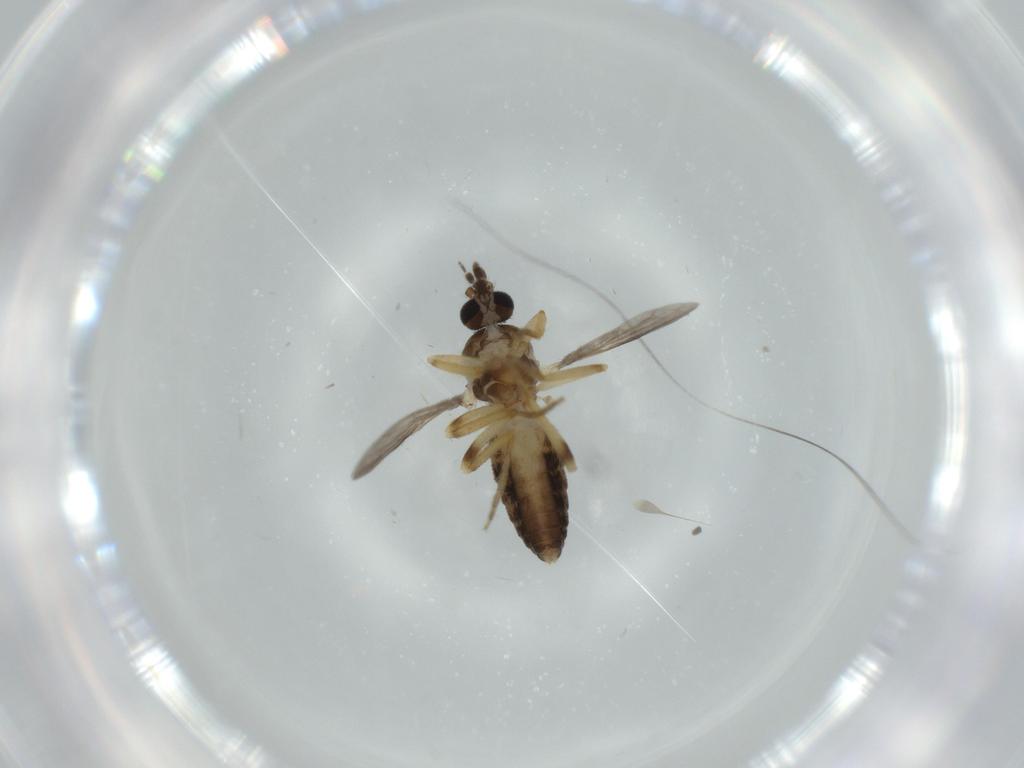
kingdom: Animalia
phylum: Arthropoda
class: Insecta
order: Diptera
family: Ceratopogonidae
